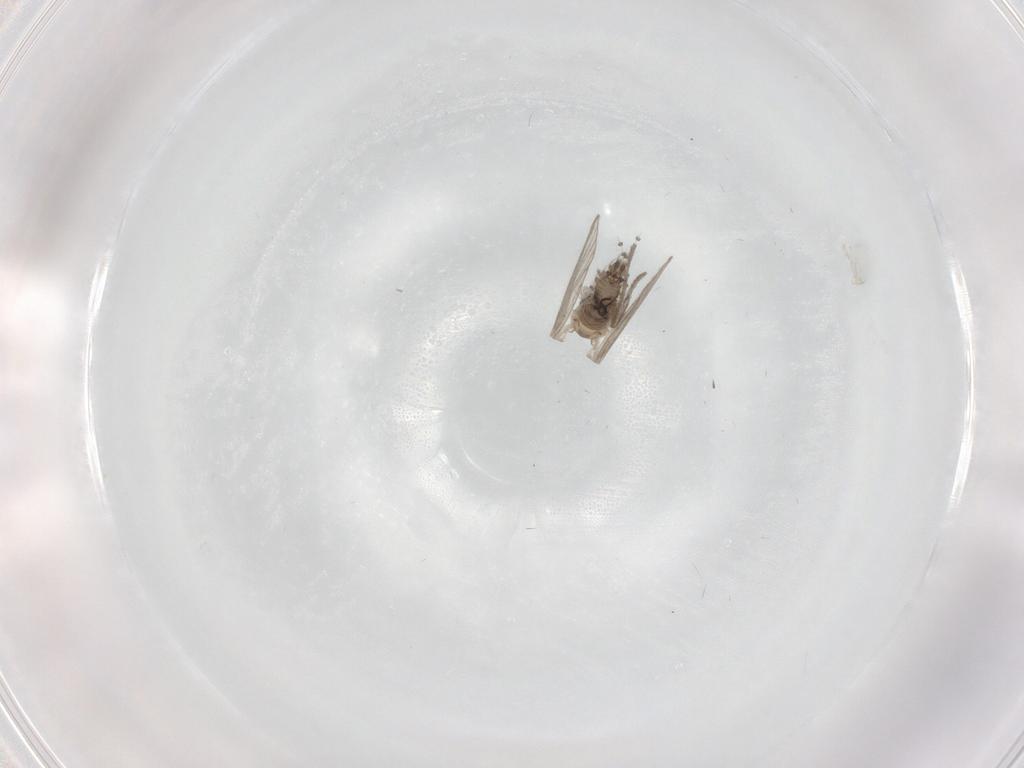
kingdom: Animalia
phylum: Arthropoda
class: Insecta
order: Diptera
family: Psychodidae
